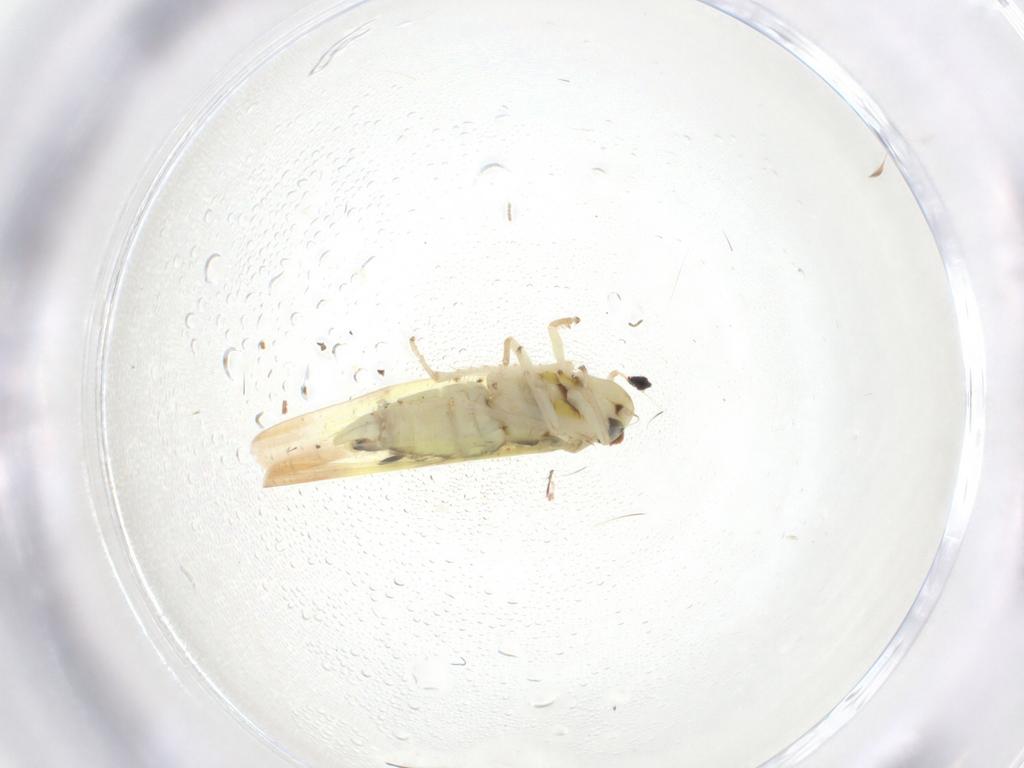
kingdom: Animalia
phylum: Arthropoda
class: Insecta
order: Hemiptera
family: Cicadellidae
